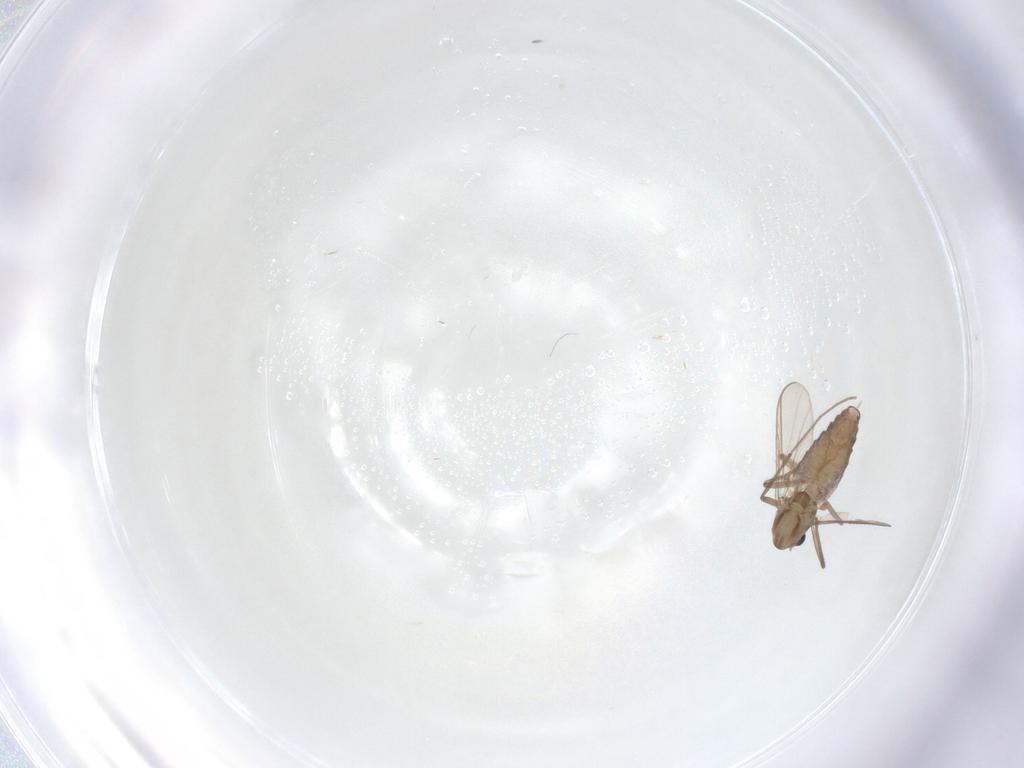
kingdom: Animalia
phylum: Arthropoda
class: Insecta
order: Diptera
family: Chironomidae
